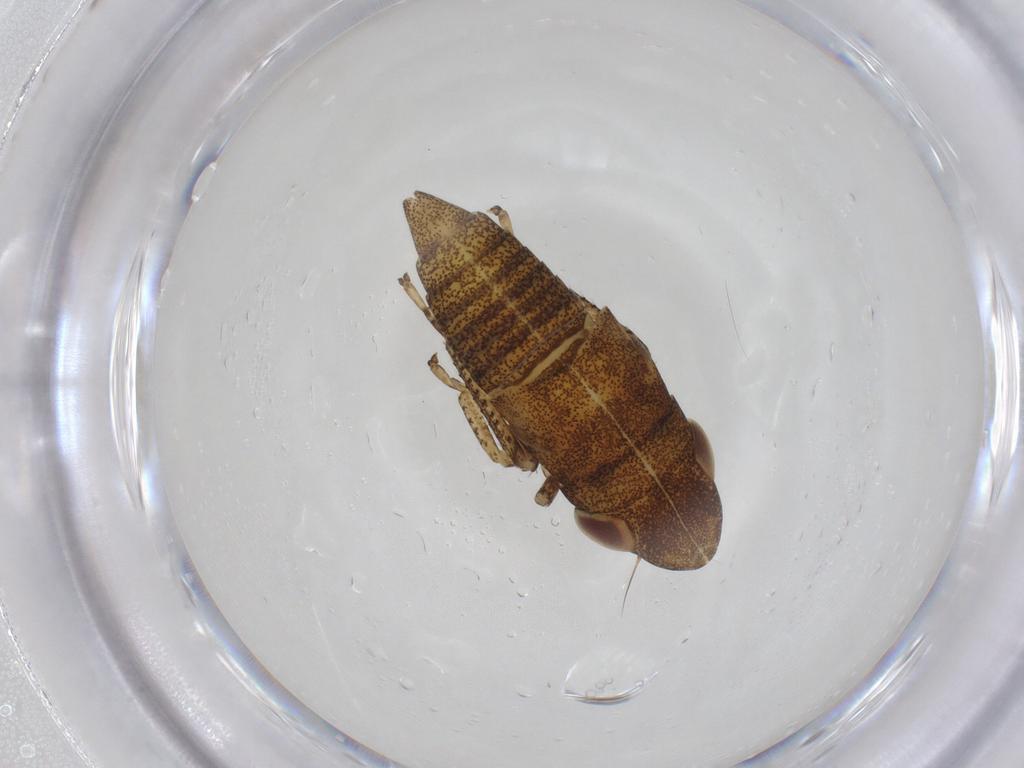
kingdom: Animalia
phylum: Arthropoda
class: Insecta
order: Hemiptera
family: Cicadellidae
